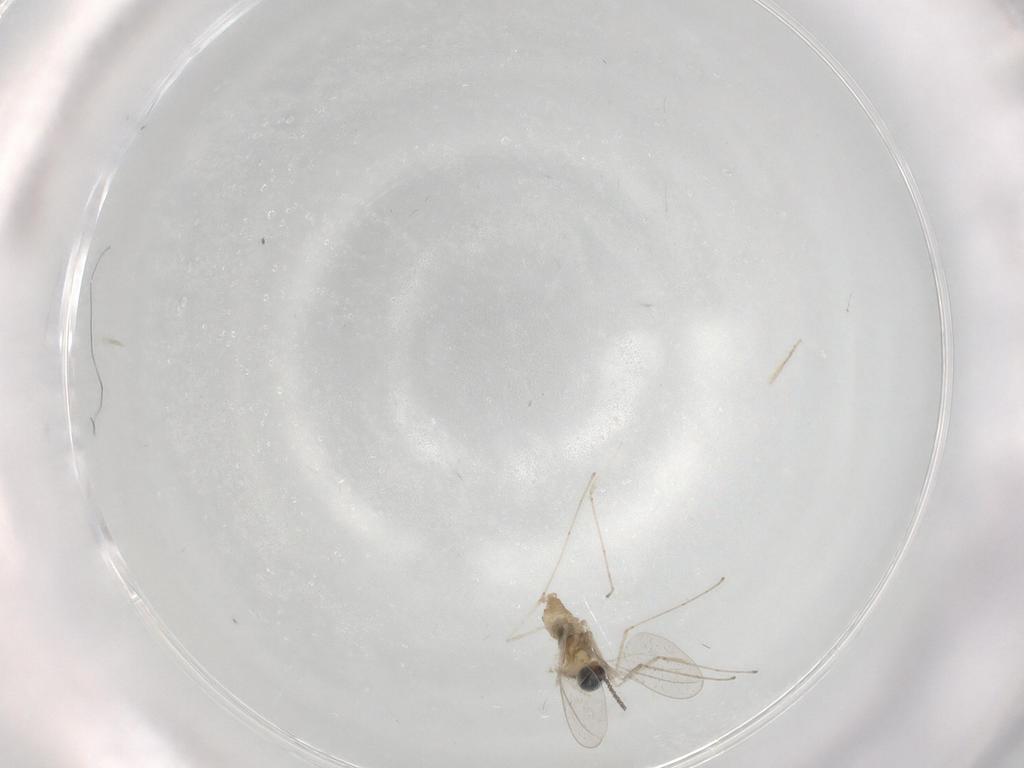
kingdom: Animalia
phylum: Arthropoda
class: Insecta
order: Diptera
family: Cecidomyiidae
